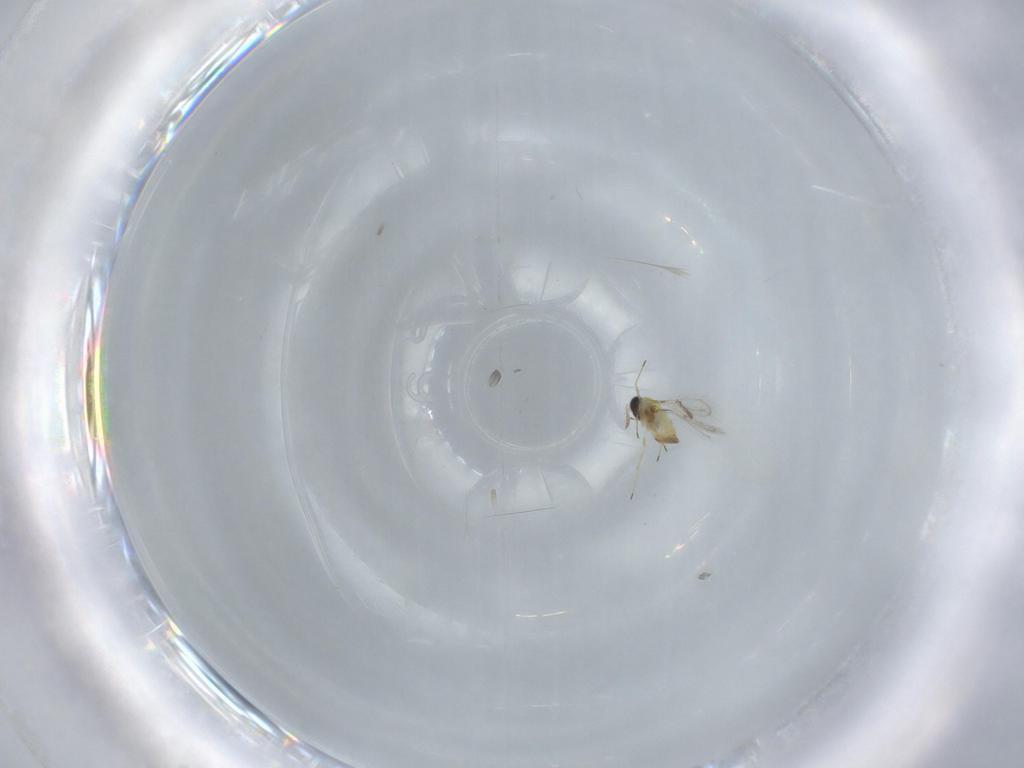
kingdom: Animalia
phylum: Arthropoda
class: Insecta
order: Hymenoptera
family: Trichogrammatidae
